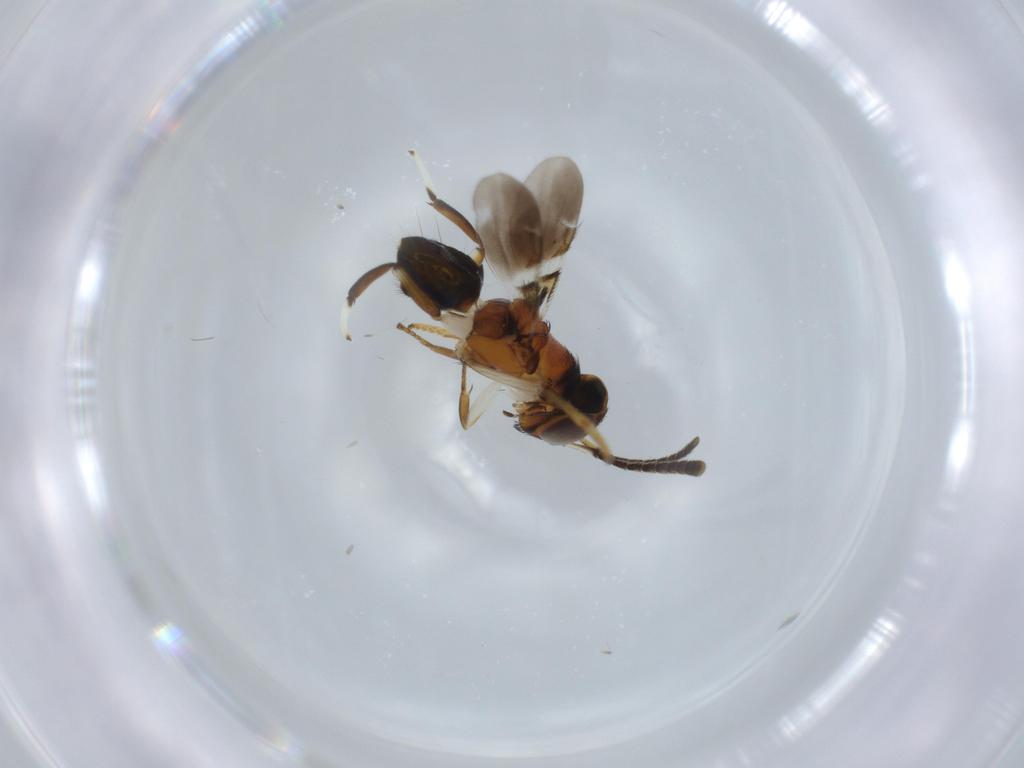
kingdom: Animalia
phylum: Arthropoda
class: Insecta
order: Hymenoptera
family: Encyrtidae
